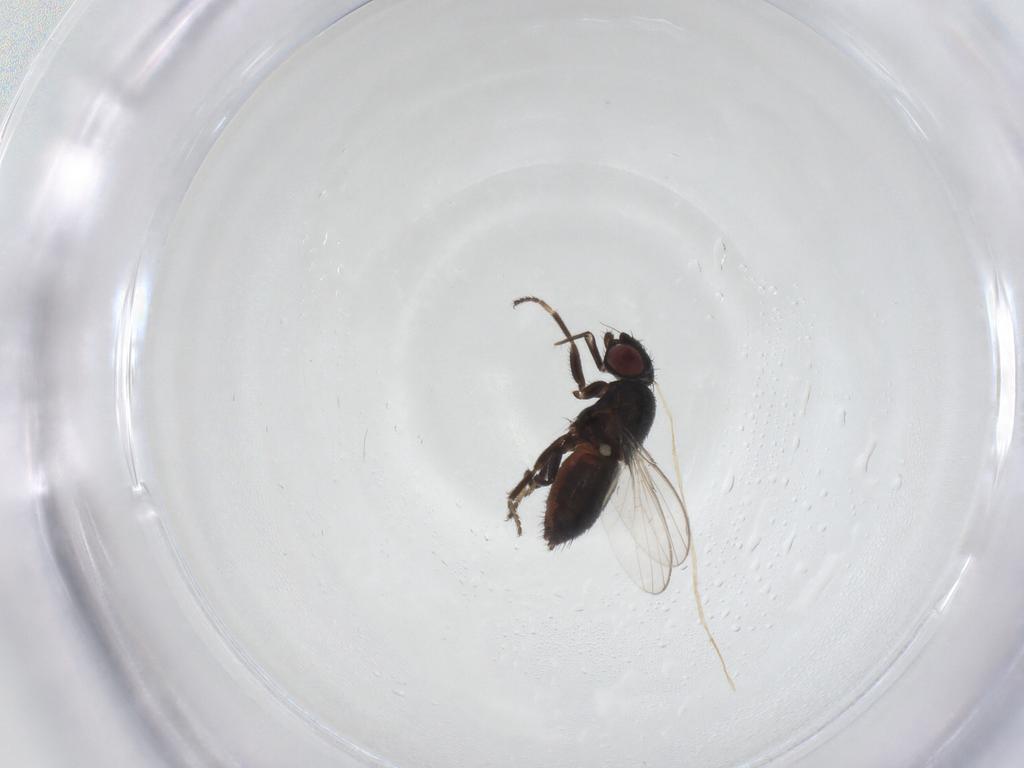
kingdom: Animalia
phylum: Arthropoda
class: Insecta
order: Diptera
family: Milichiidae
